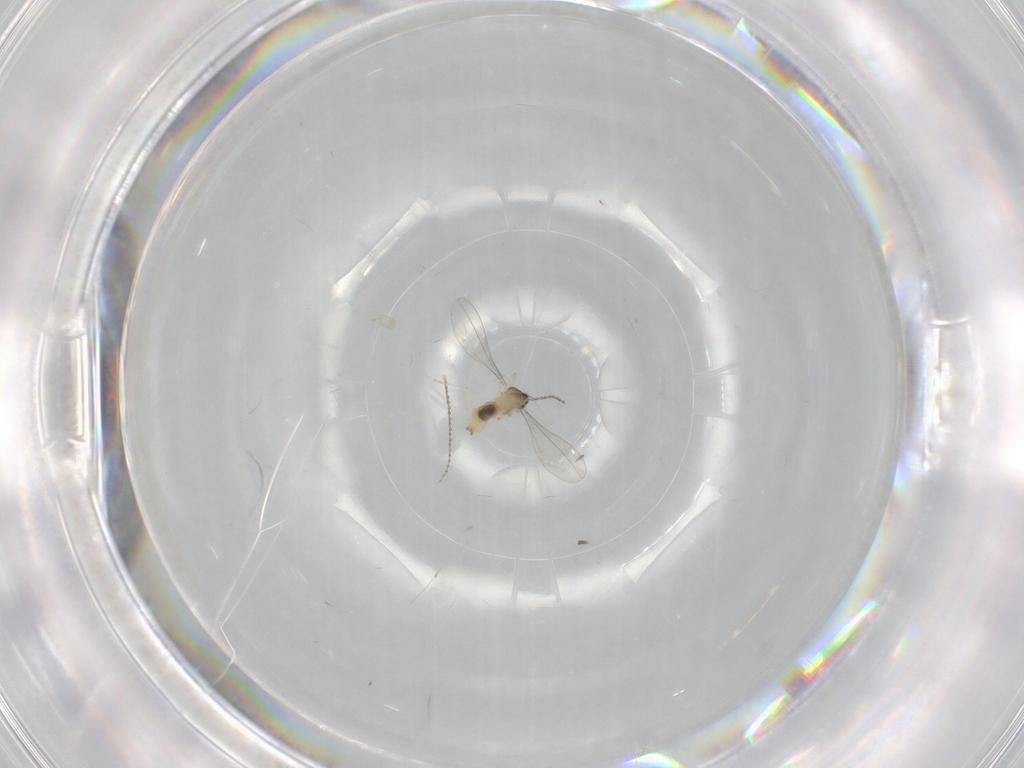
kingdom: Animalia
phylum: Arthropoda
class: Insecta
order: Diptera
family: Cecidomyiidae
